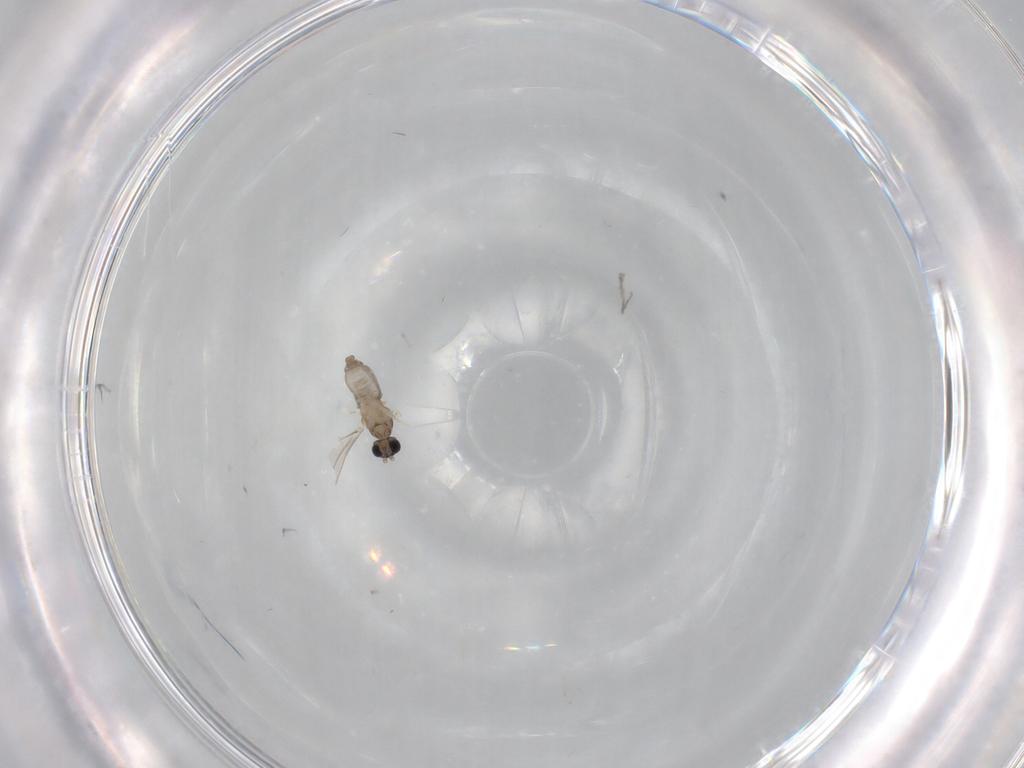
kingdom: Animalia
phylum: Arthropoda
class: Insecta
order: Diptera
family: Cecidomyiidae
